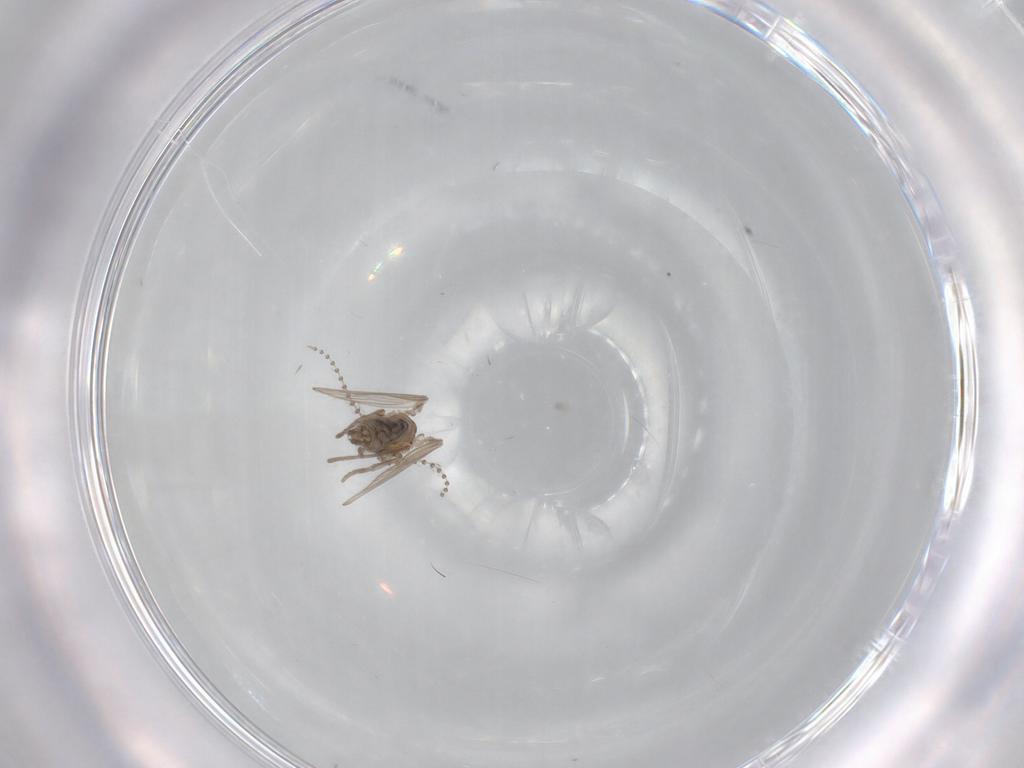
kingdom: Animalia
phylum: Arthropoda
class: Insecta
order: Diptera
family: Psychodidae
